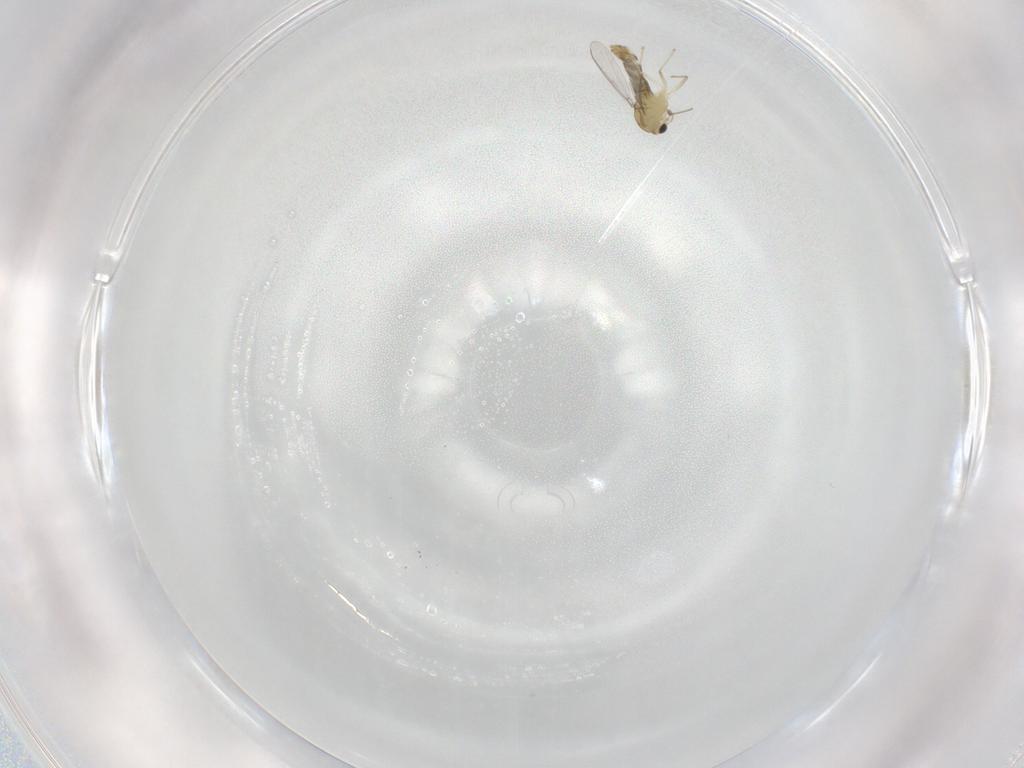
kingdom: Animalia
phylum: Arthropoda
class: Insecta
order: Diptera
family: Chironomidae
